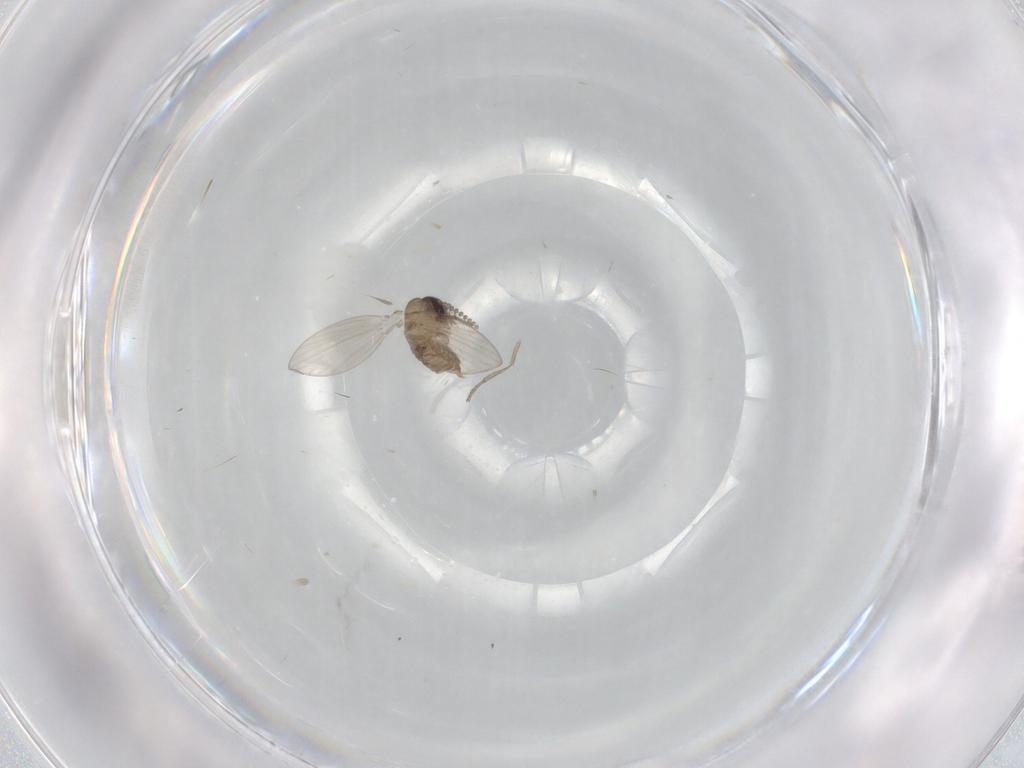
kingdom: Animalia
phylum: Arthropoda
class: Insecta
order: Diptera
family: Psychodidae
